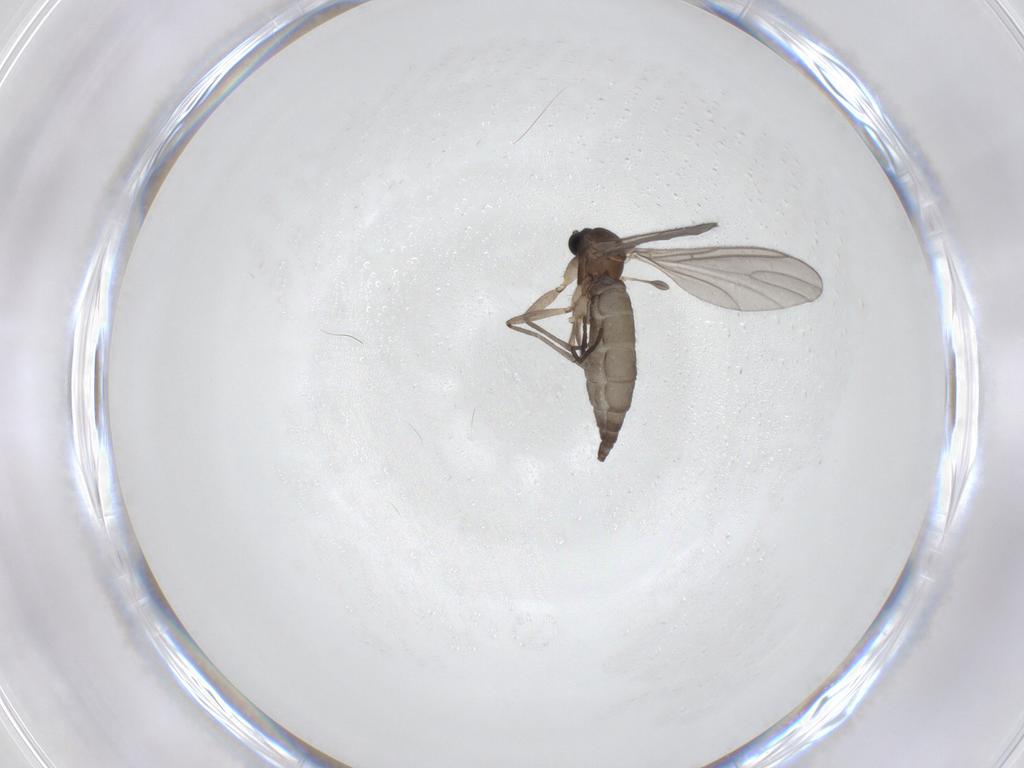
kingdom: Animalia
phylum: Arthropoda
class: Insecta
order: Diptera
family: Sciaridae
